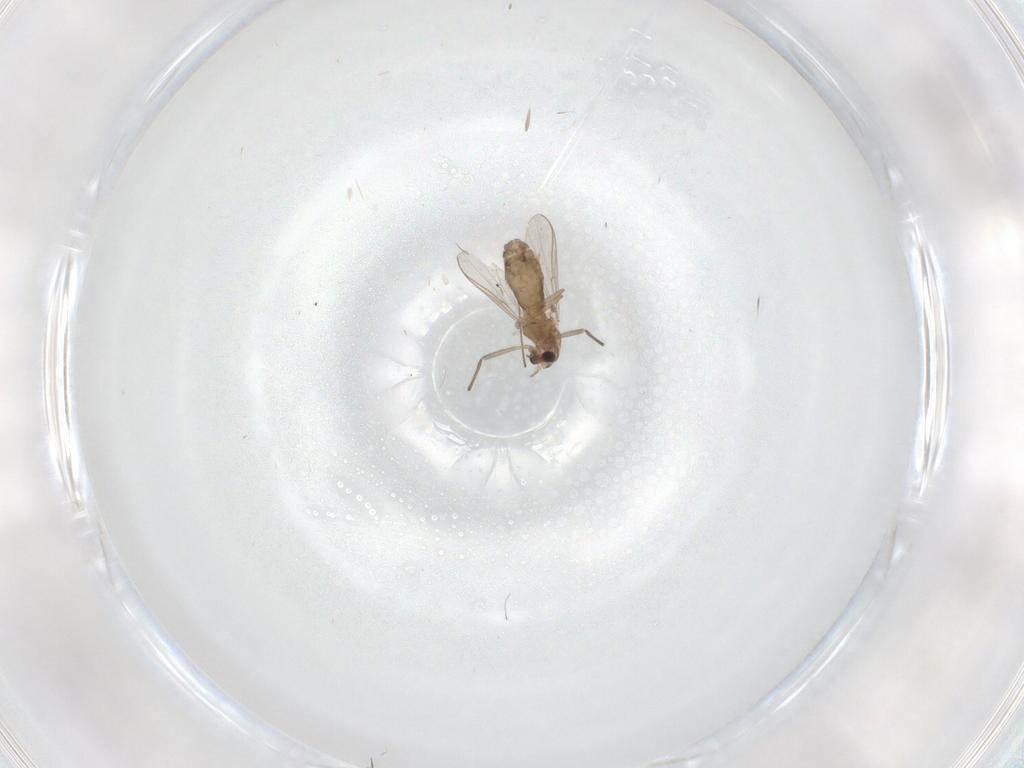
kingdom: Animalia
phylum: Arthropoda
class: Insecta
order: Diptera
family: Chironomidae
